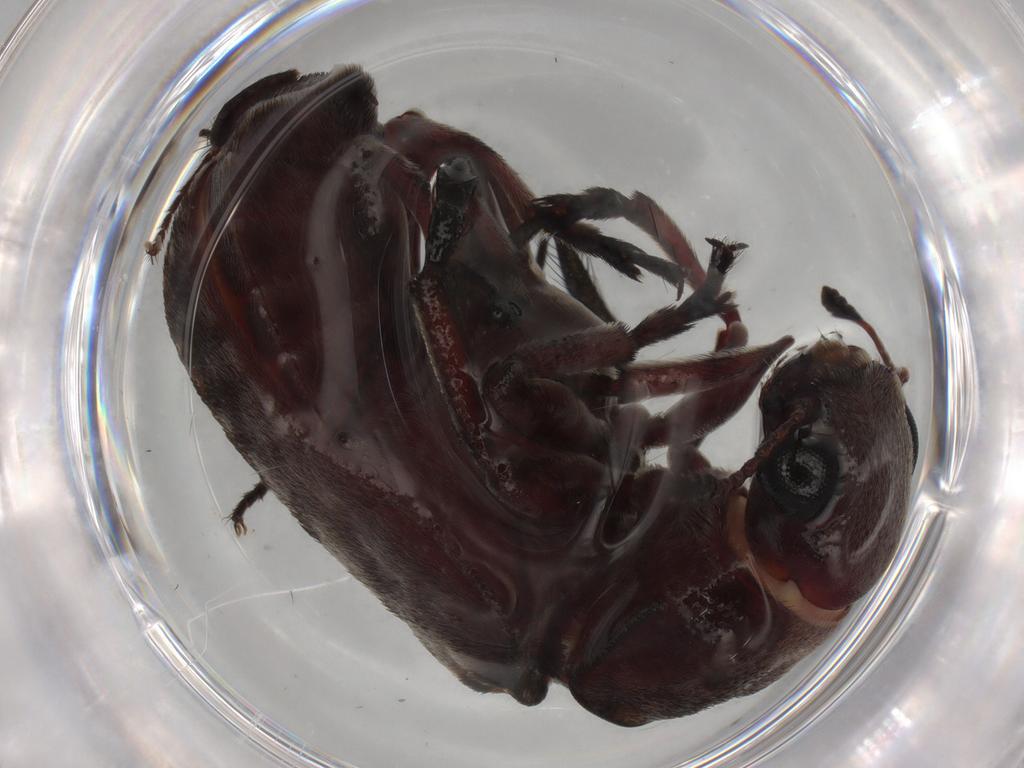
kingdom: Animalia
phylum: Arthropoda
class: Insecta
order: Coleoptera
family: Anthribidae
